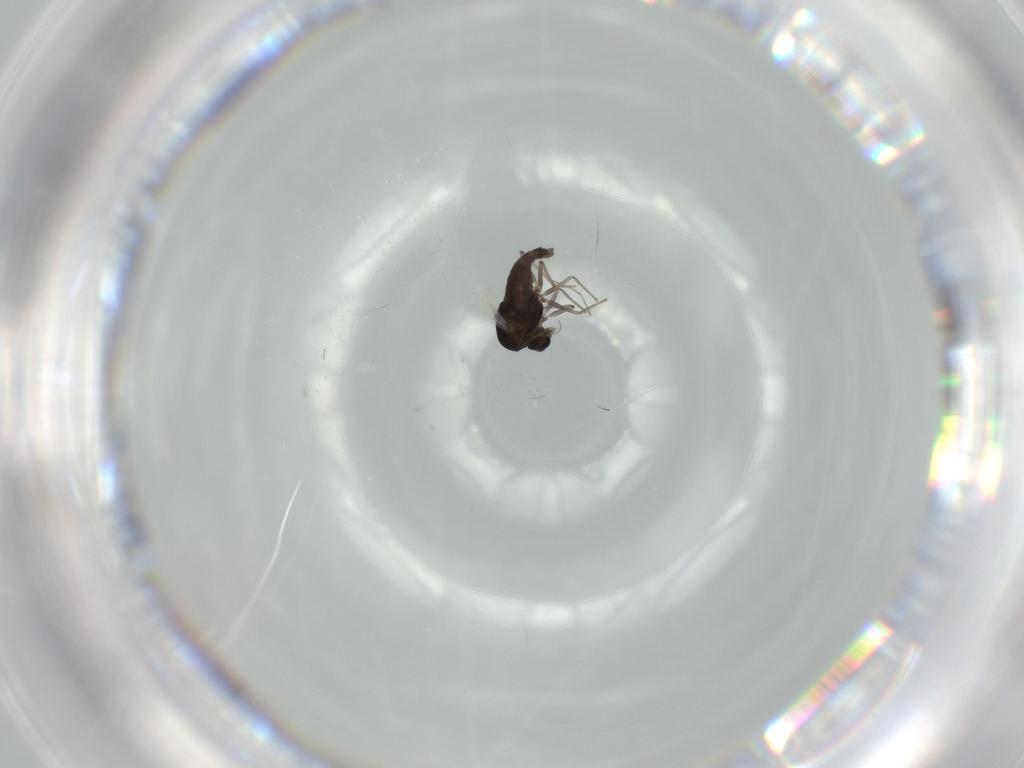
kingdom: Animalia
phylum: Arthropoda
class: Insecta
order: Diptera
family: Chironomidae
